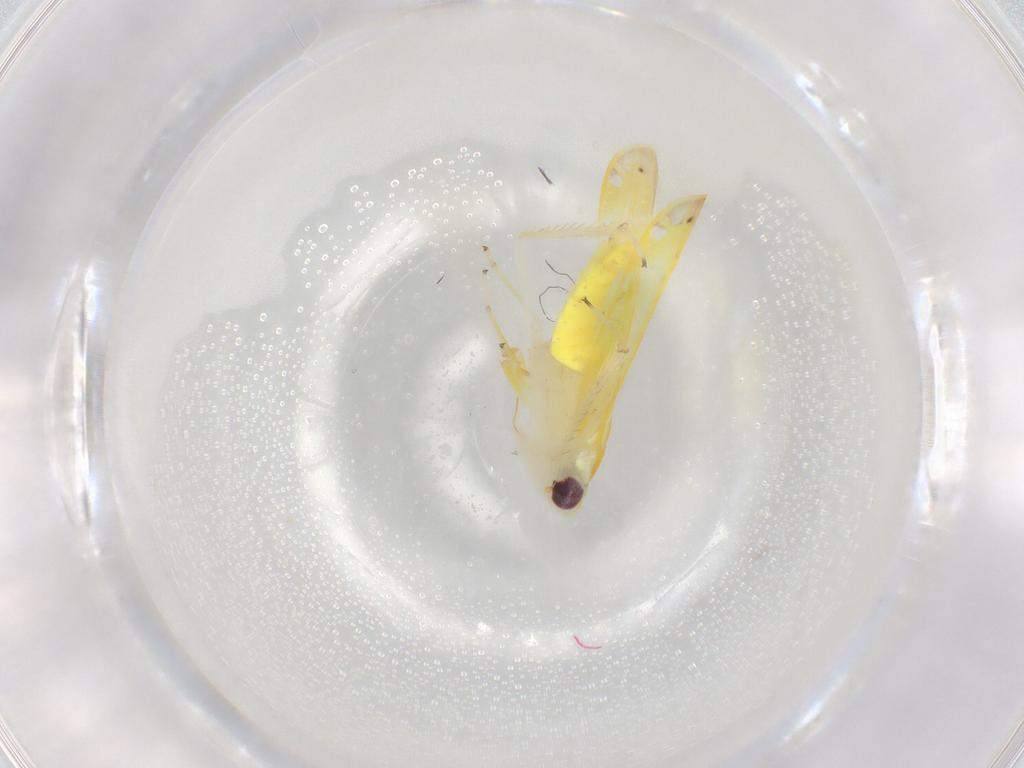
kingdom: Animalia
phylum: Arthropoda
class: Insecta
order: Hemiptera
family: Cicadellidae
